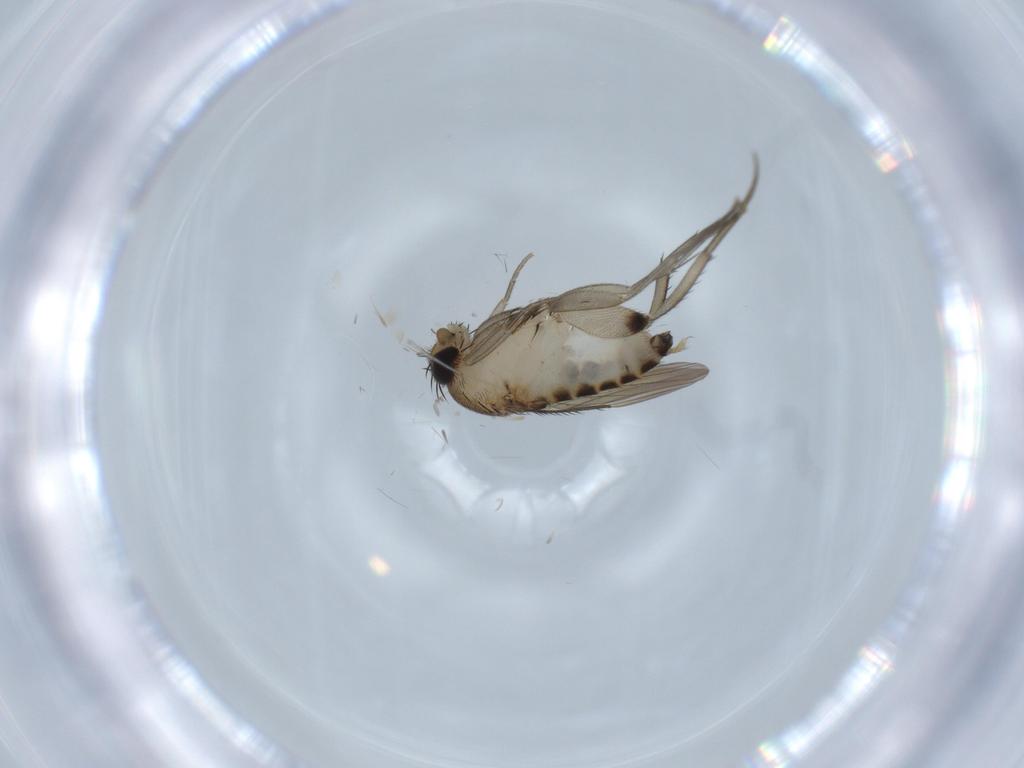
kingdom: Animalia
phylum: Arthropoda
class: Insecta
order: Diptera
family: Phoridae
